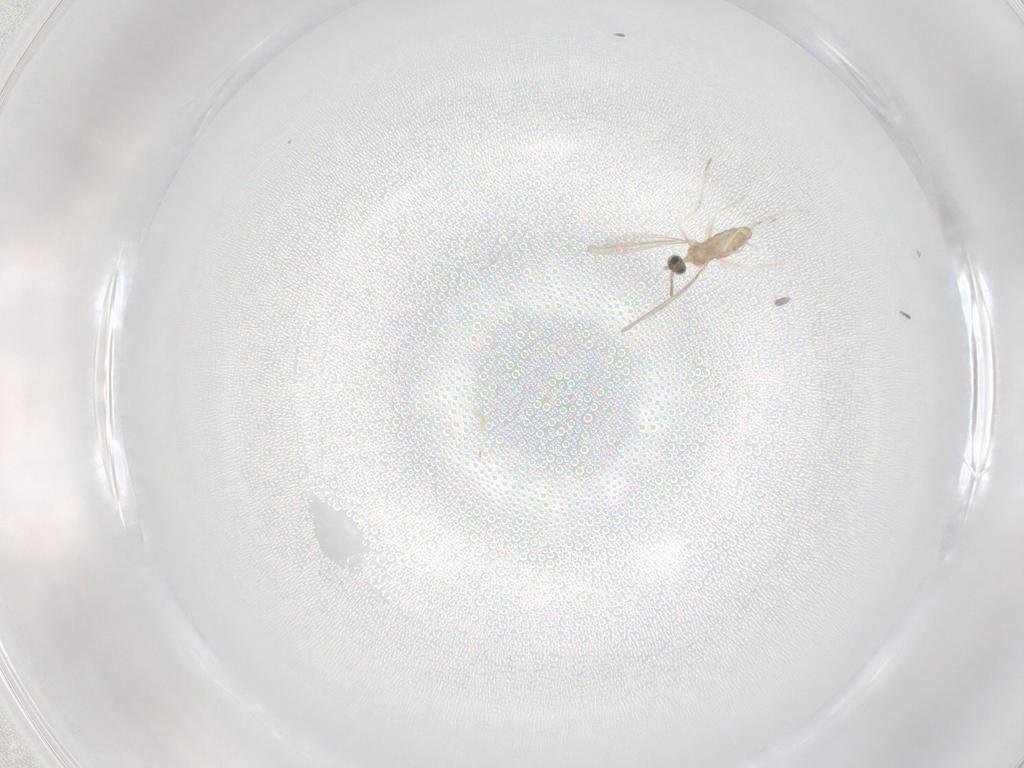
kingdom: Animalia
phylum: Arthropoda
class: Insecta
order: Diptera
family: Cecidomyiidae
